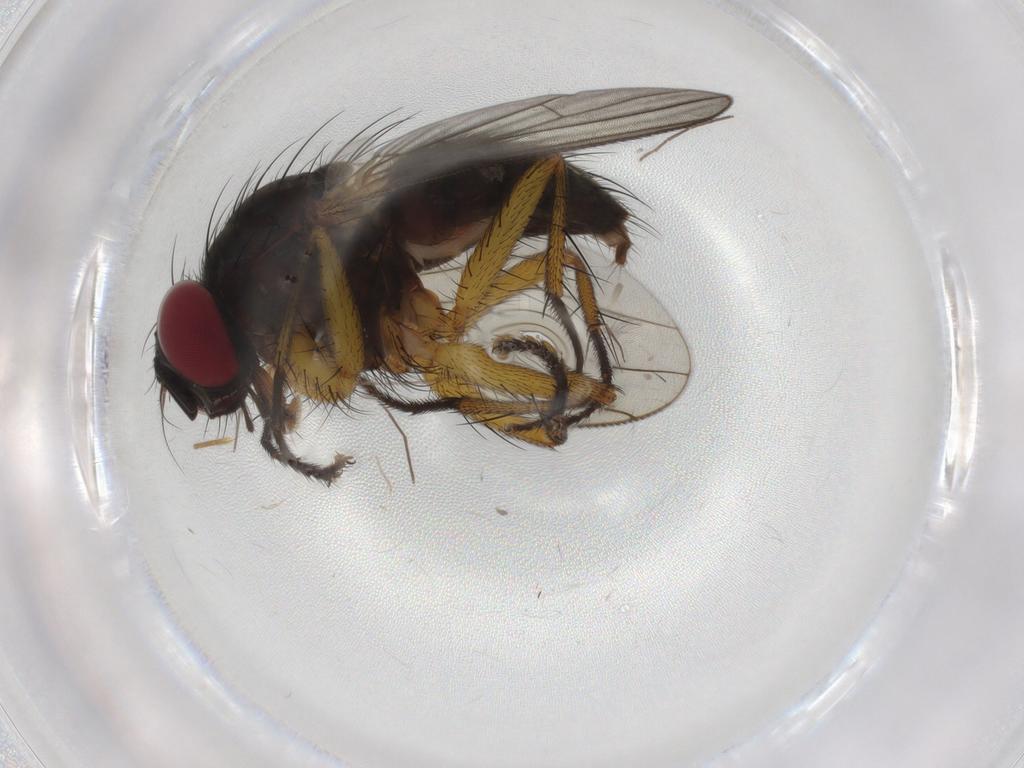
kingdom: Animalia
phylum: Arthropoda
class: Insecta
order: Diptera
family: Muscidae
